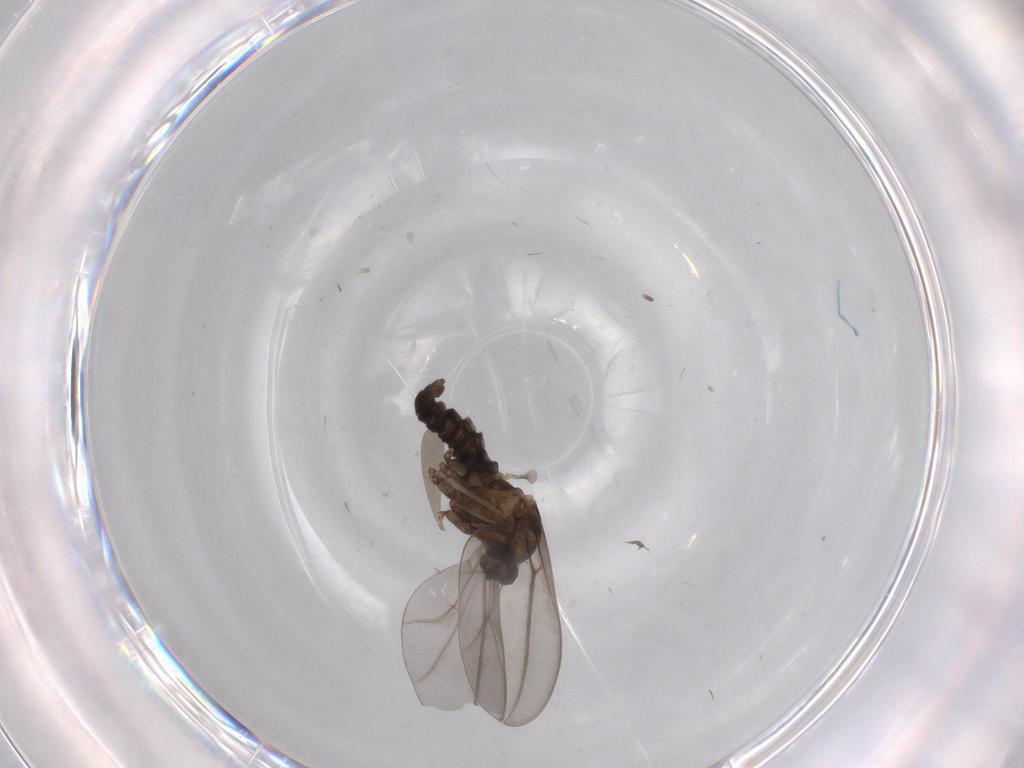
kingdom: Animalia
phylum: Arthropoda
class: Insecta
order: Diptera
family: Cecidomyiidae
